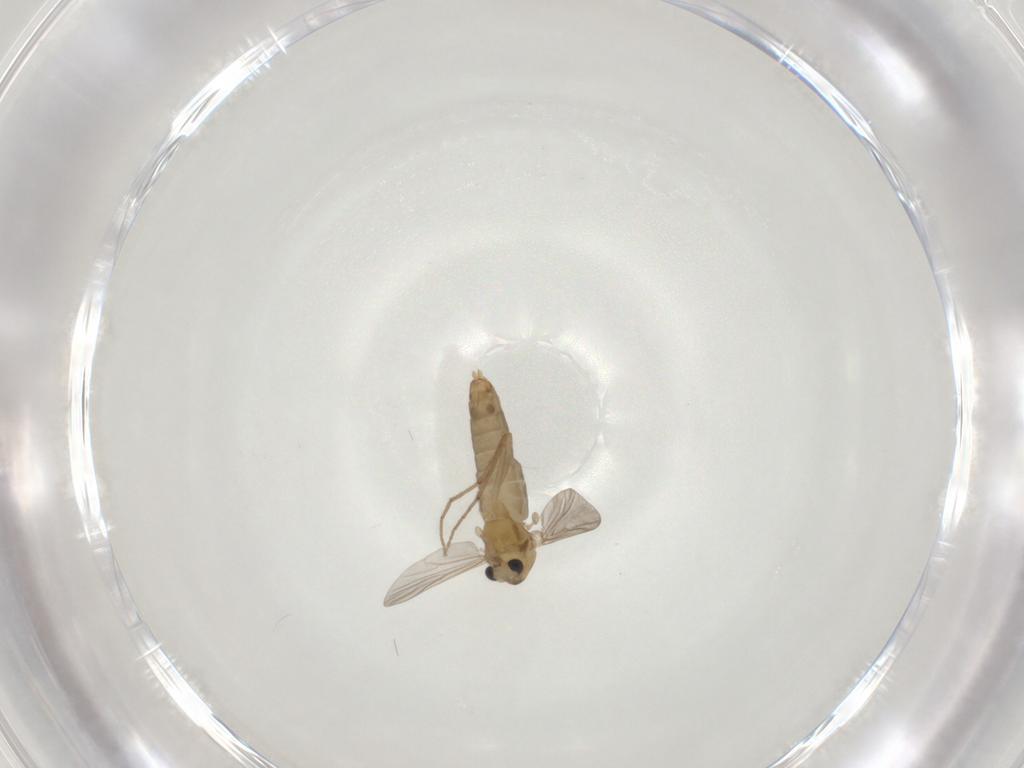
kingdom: Animalia
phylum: Arthropoda
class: Insecta
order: Diptera
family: Chironomidae
